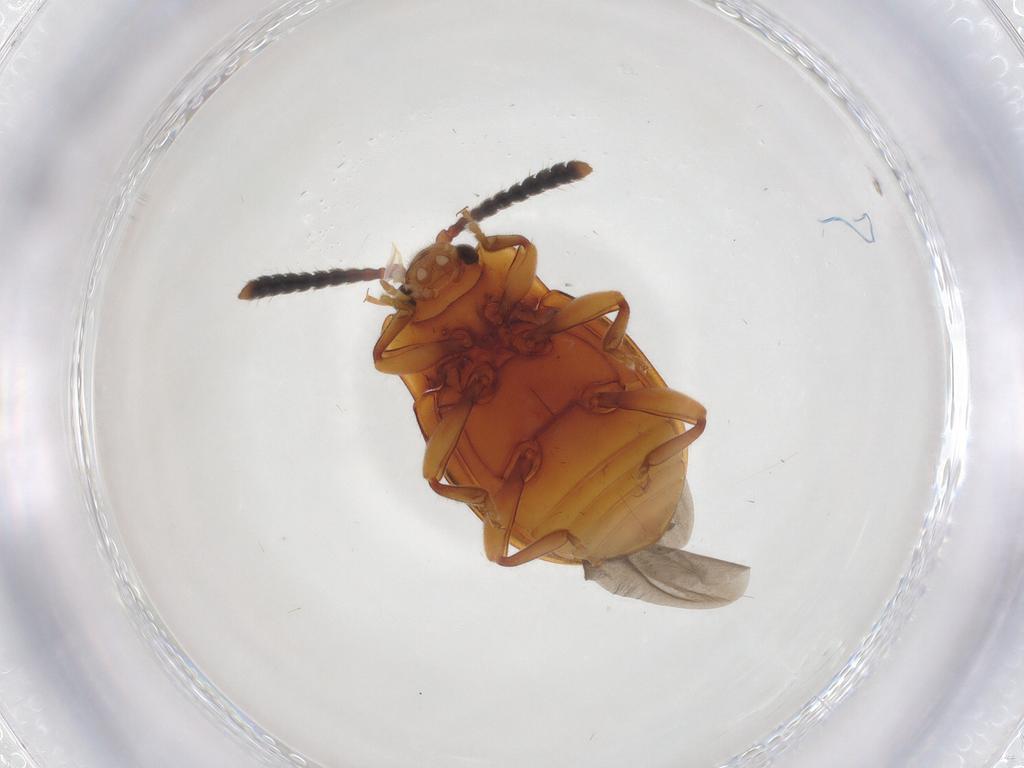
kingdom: Animalia
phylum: Arthropoda
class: Insecta
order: Coleoptera
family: Endomychidae
